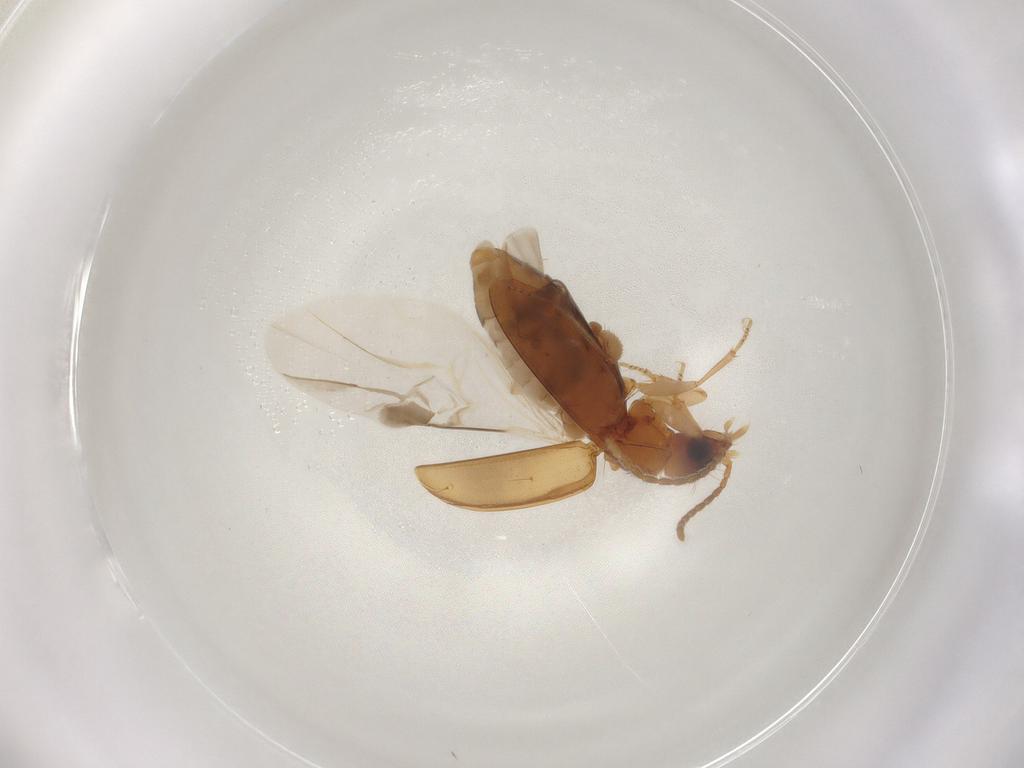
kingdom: Animalia
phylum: Arthropoda
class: Insecta
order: Coleoptera
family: Carabidae
